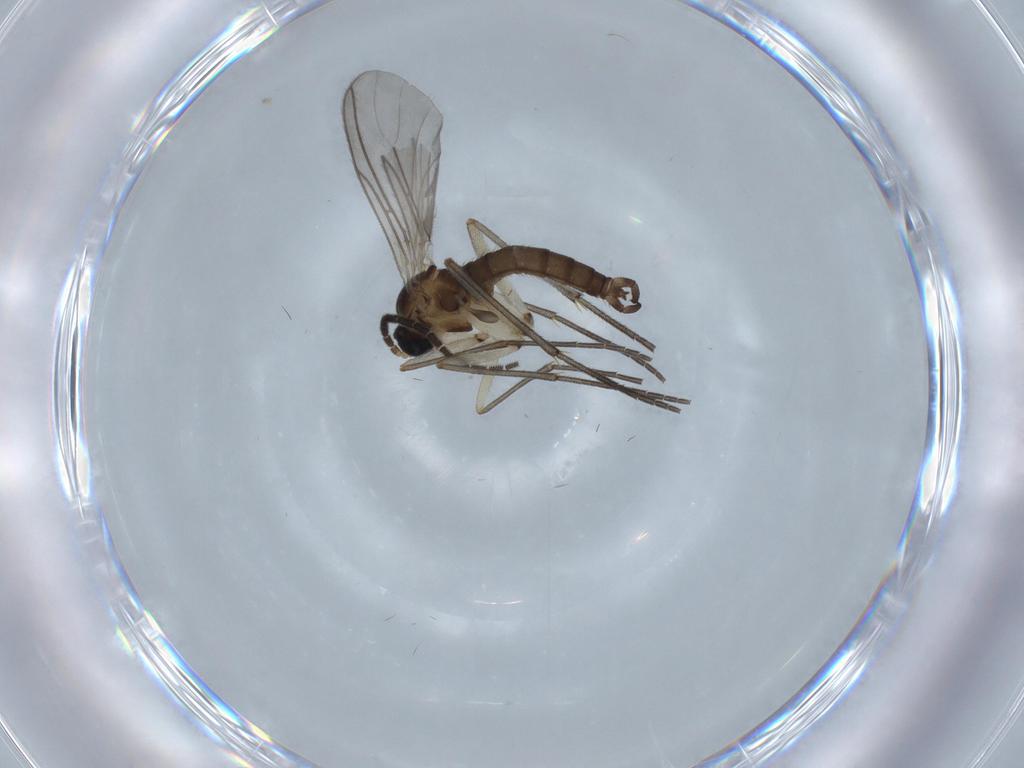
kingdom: Animalia
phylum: Arthropoda
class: Insecta
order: Diptera
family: Sciaridae
